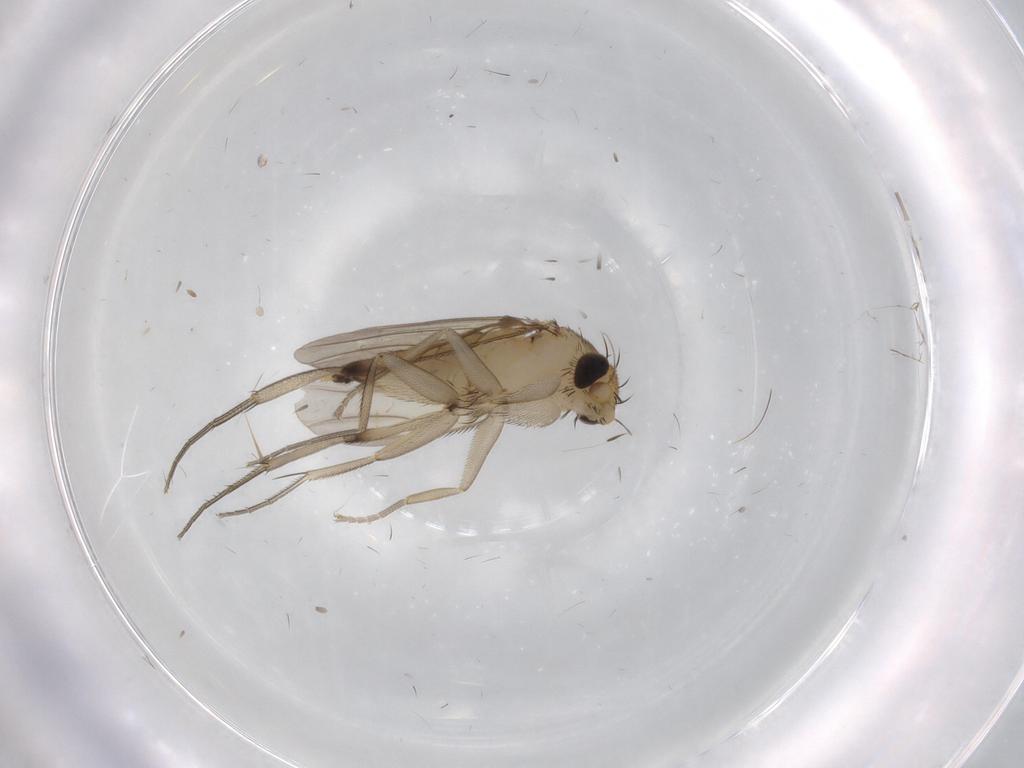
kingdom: Animalia
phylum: Arthropoda
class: Insecta
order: Diptera
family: Phoridae
